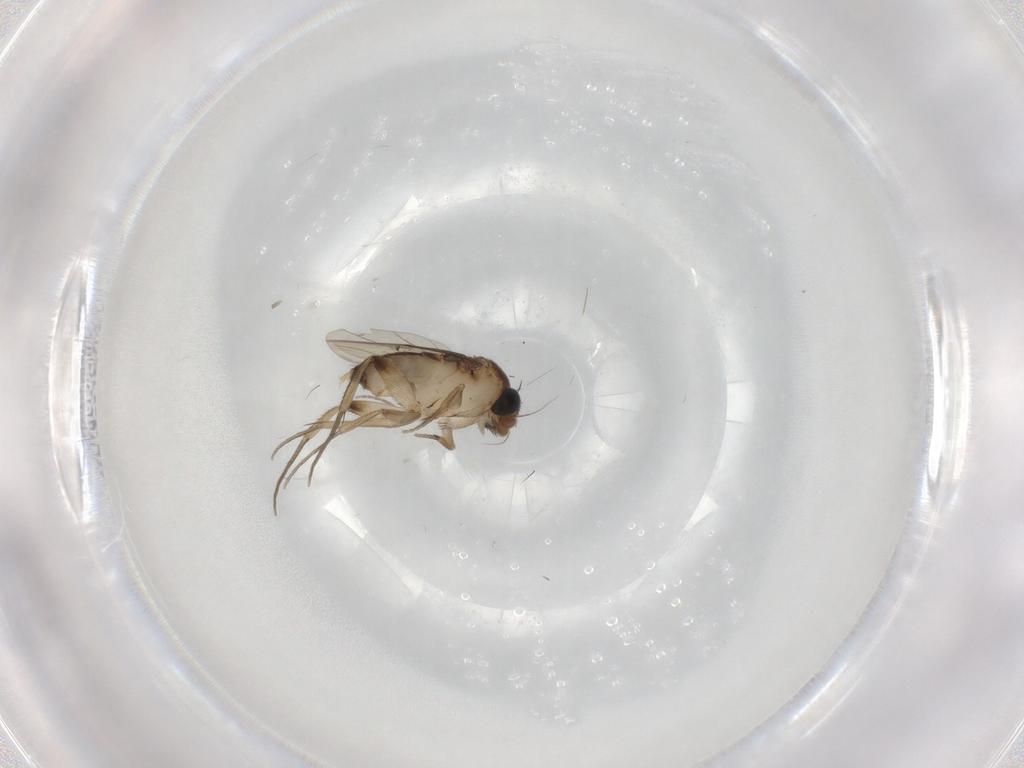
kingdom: Animalia
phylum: Arthropoda
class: Insecta
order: Diptera
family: Phoridae
